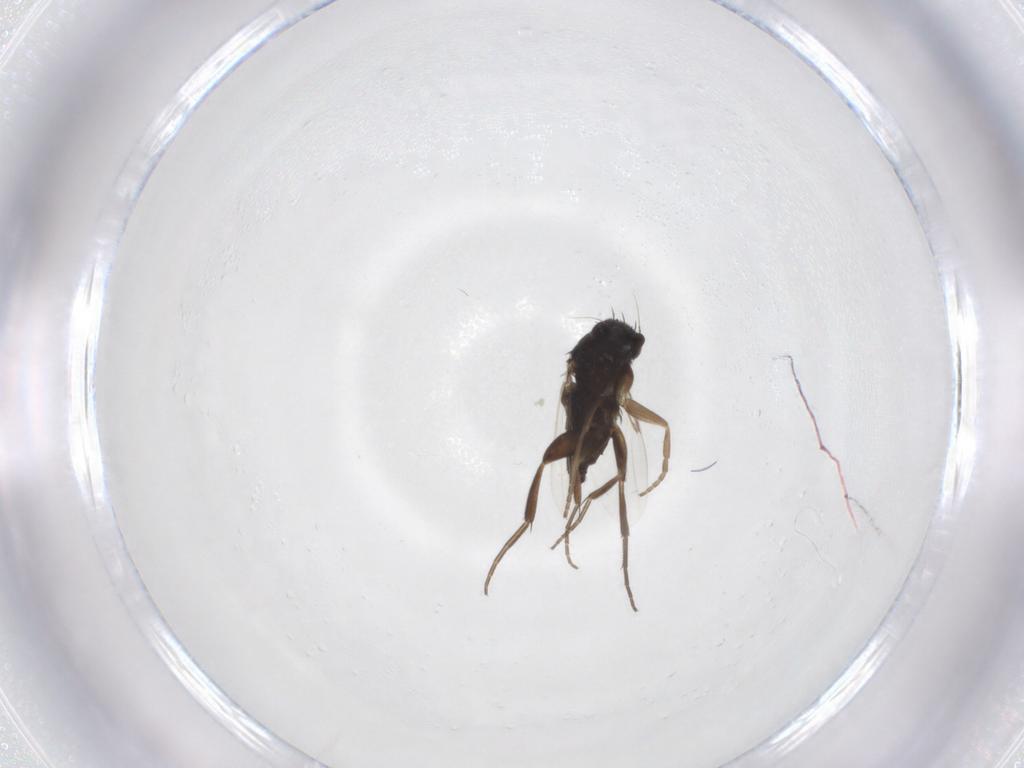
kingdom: Animalia
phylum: Arthropoda
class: Insecta
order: Diptera
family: Phoridae
